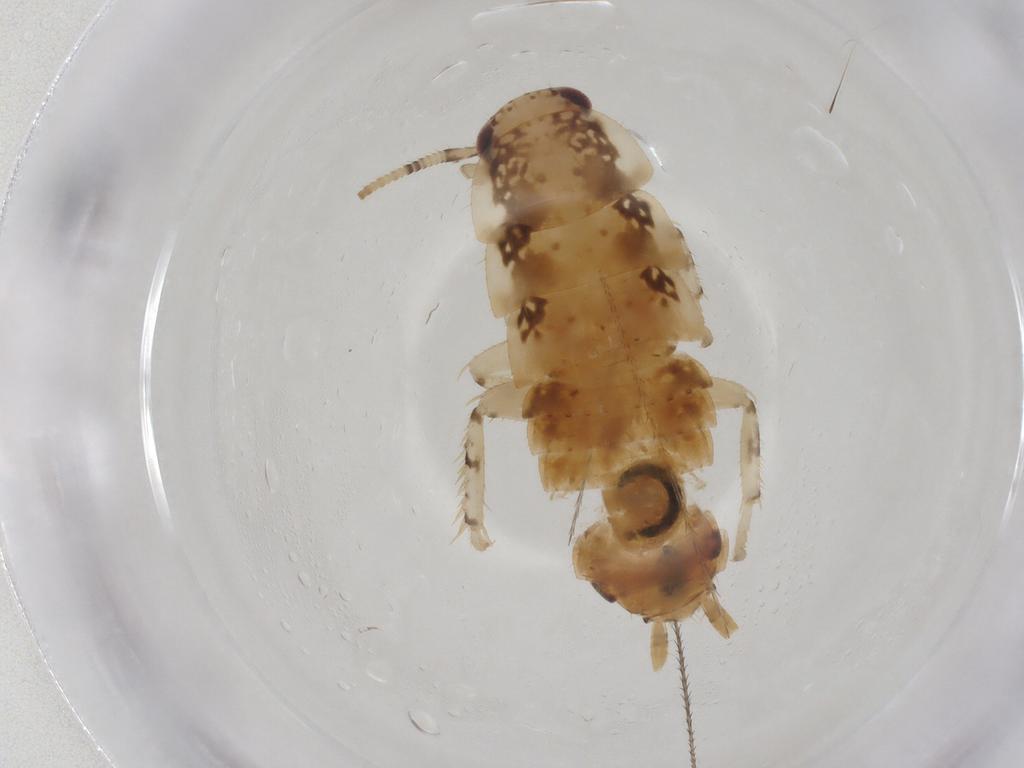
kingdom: Animalia
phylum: Arthropoda
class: Insecta
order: Blattodea
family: Ectobiidae
